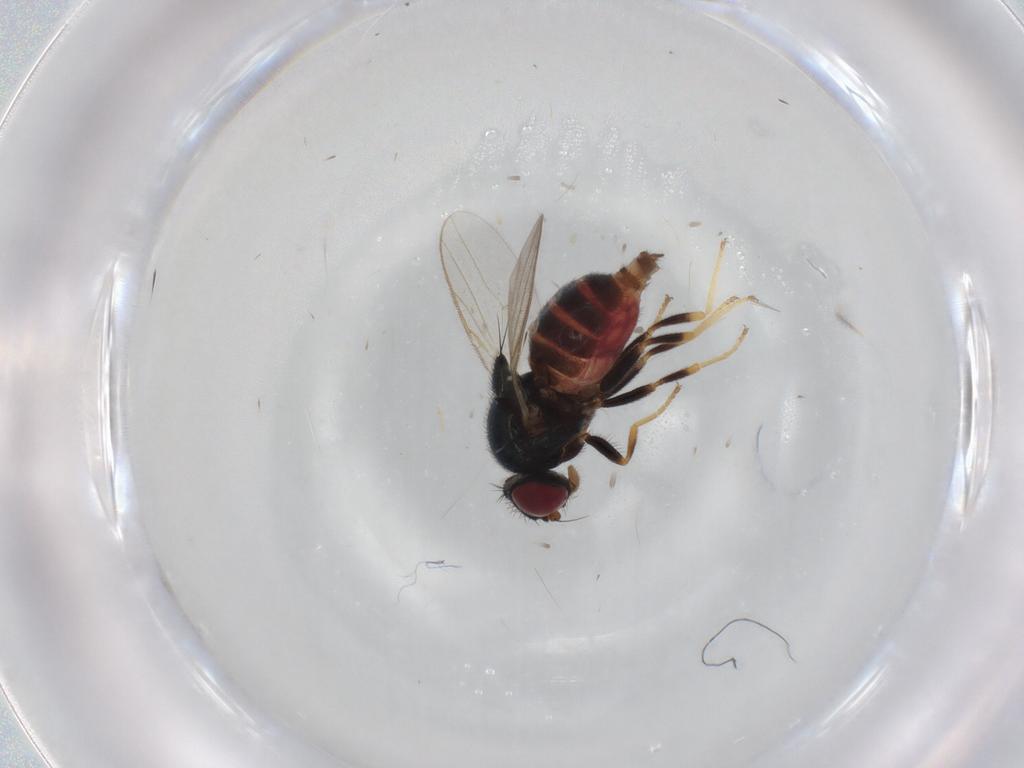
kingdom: Animalia
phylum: Arthropoda
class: Insecta
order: Diptera
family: Chloropidae
